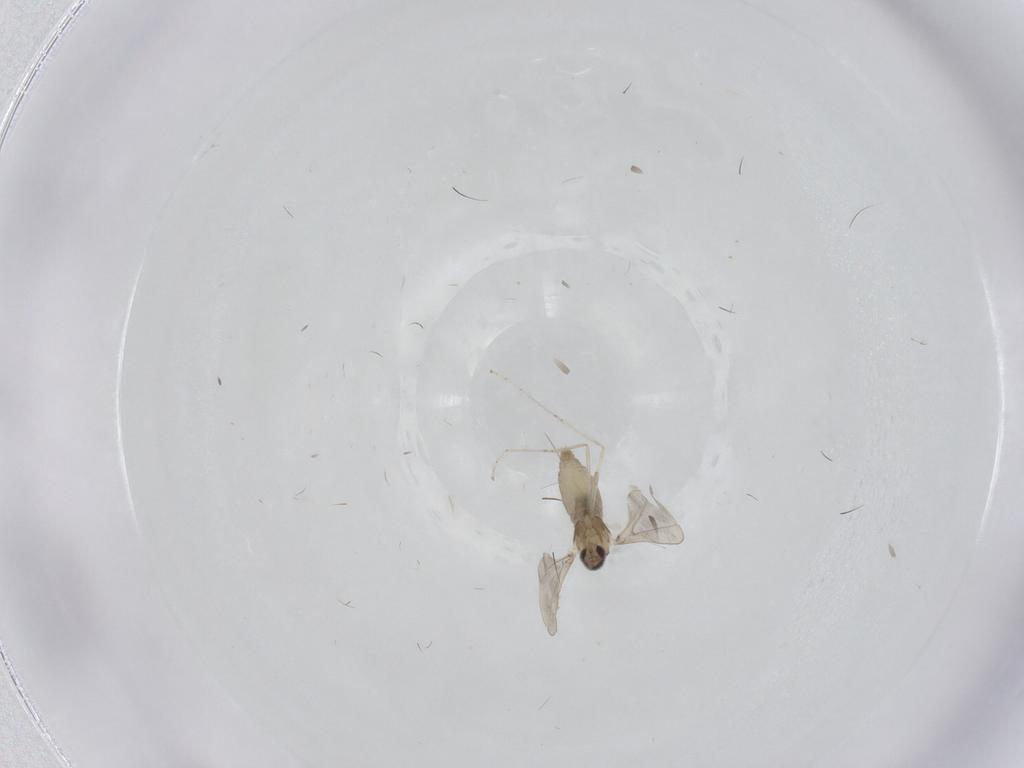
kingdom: Animalia
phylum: Arthropoda
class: Insecta
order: Diptera
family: Cecidomyiidae
